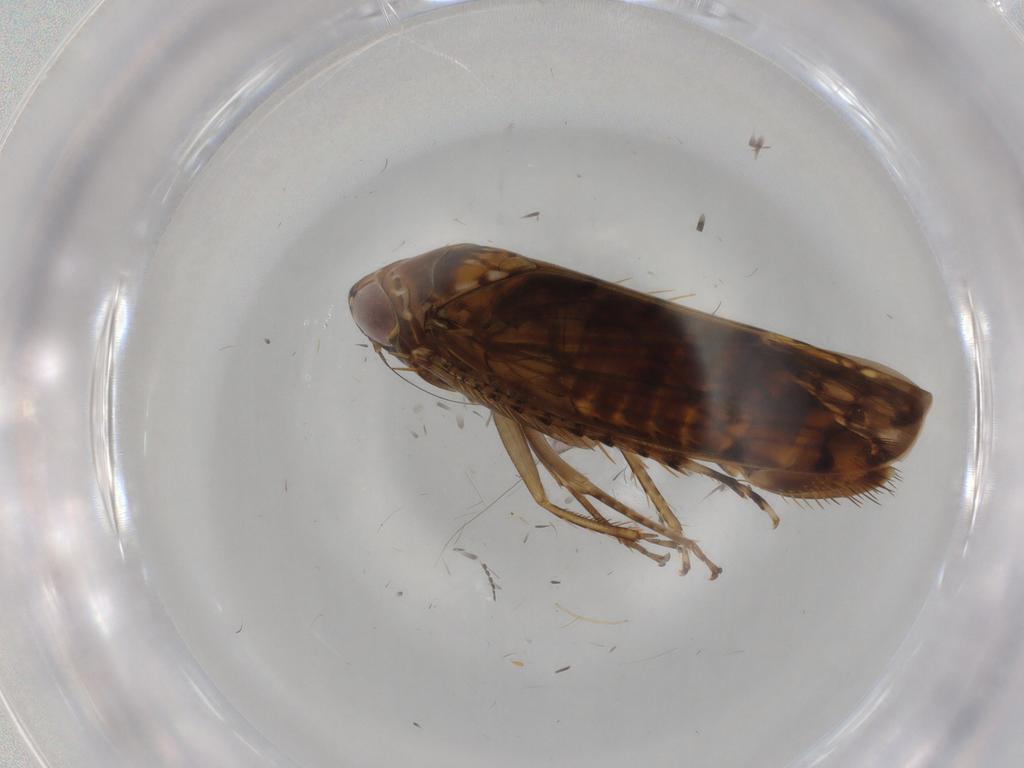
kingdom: Animalia
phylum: Arthropoda
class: Insecta
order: Hemiptera
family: Cicadellidae
